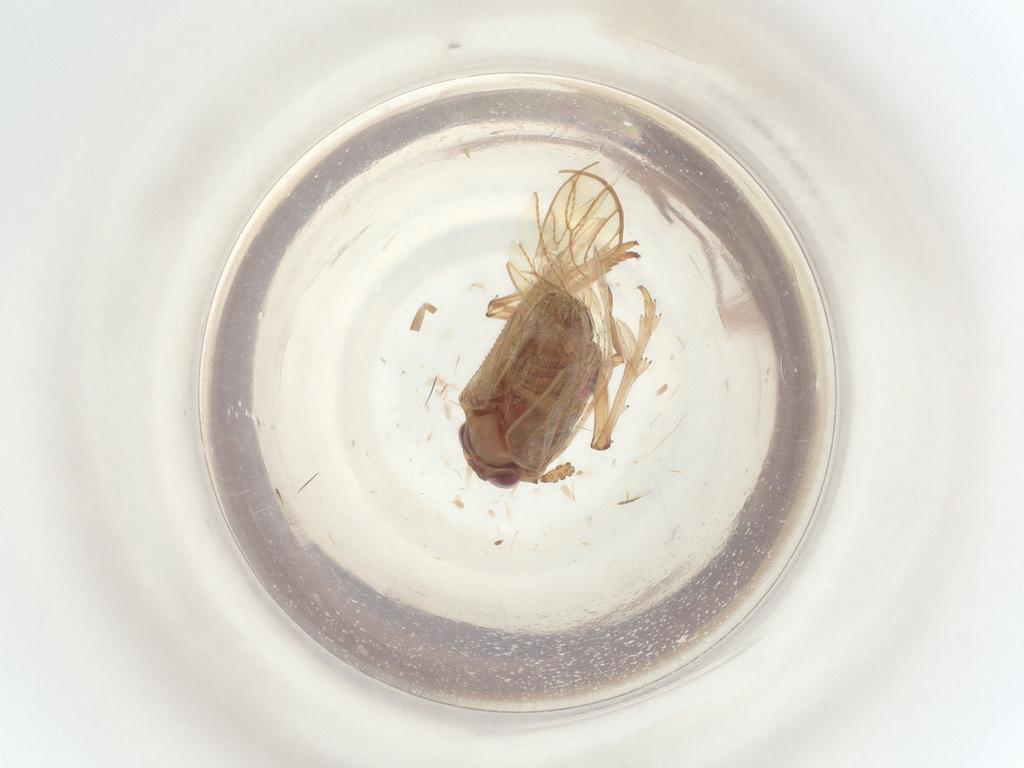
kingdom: Animalia
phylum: Arthropoda
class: Insecta
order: Hymenoptera
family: Braconidae
